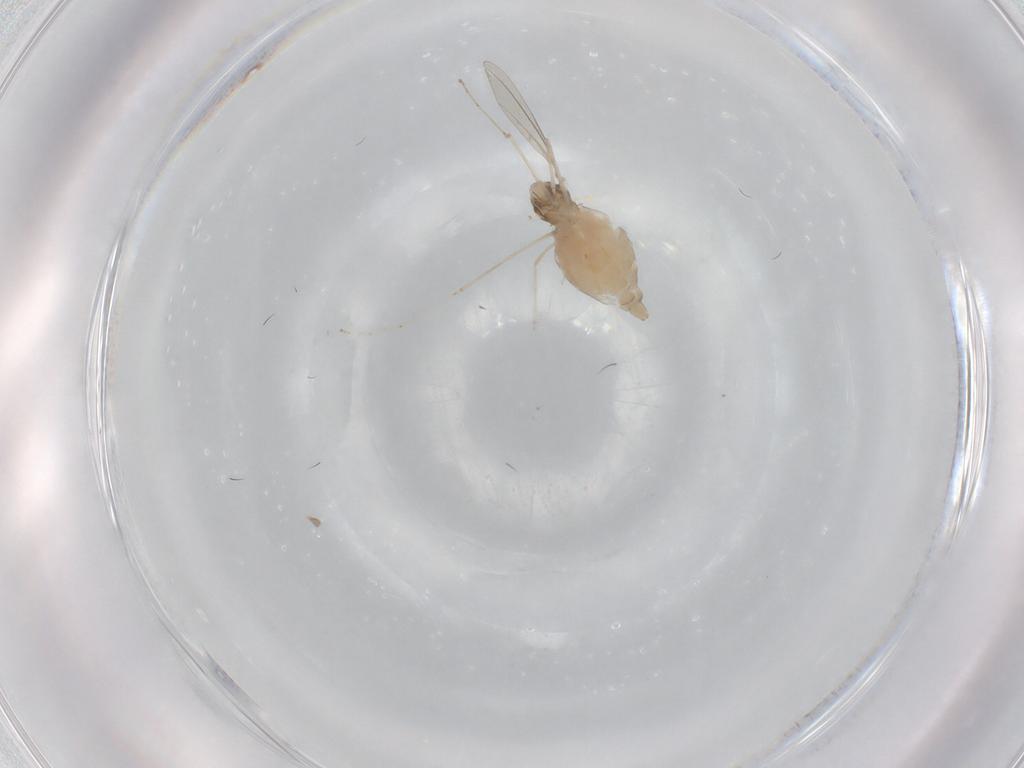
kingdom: Animalia
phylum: Arthropoda
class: Insecta
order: Diptera
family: Cecidomyiidae
